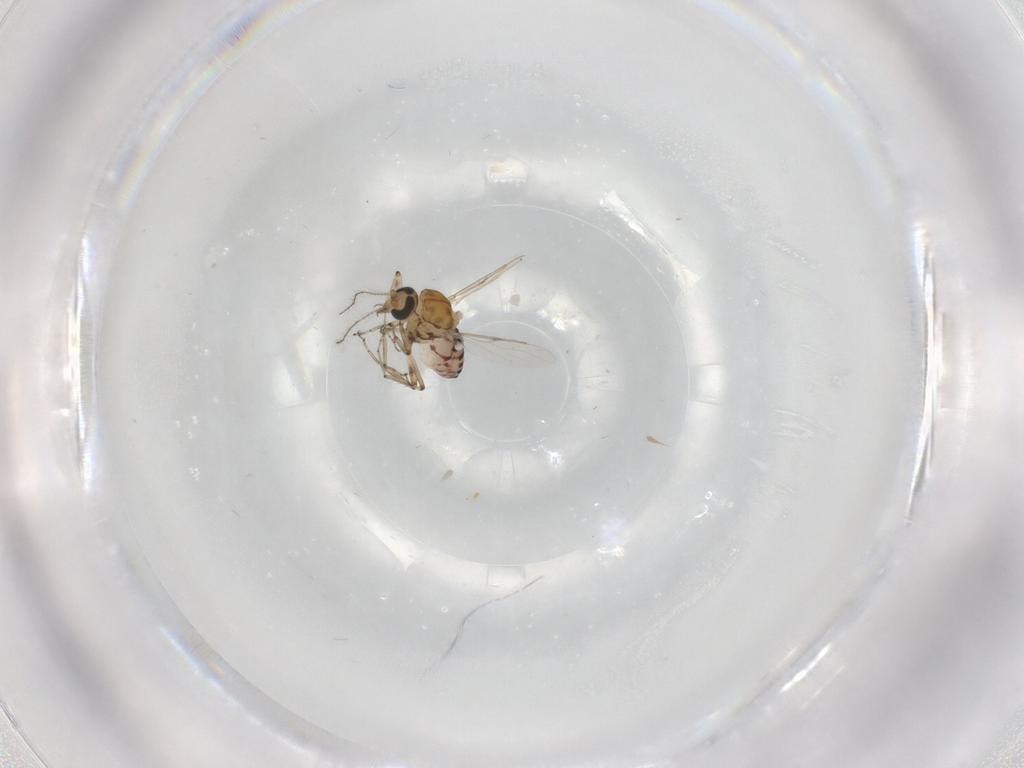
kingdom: Animalia
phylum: Arthropoda
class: Insecta
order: Diptera
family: Ceratopogonidae
